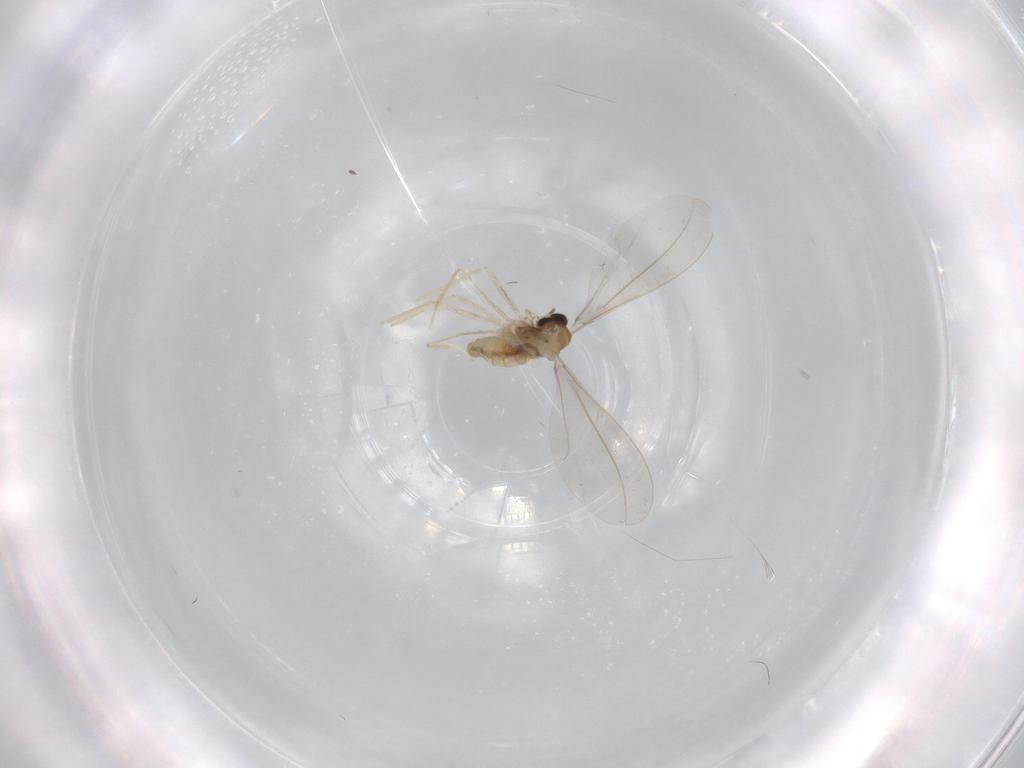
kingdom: Animalia
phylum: Arthropoda
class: Insecta
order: Diptera
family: Cecidomyiidae
